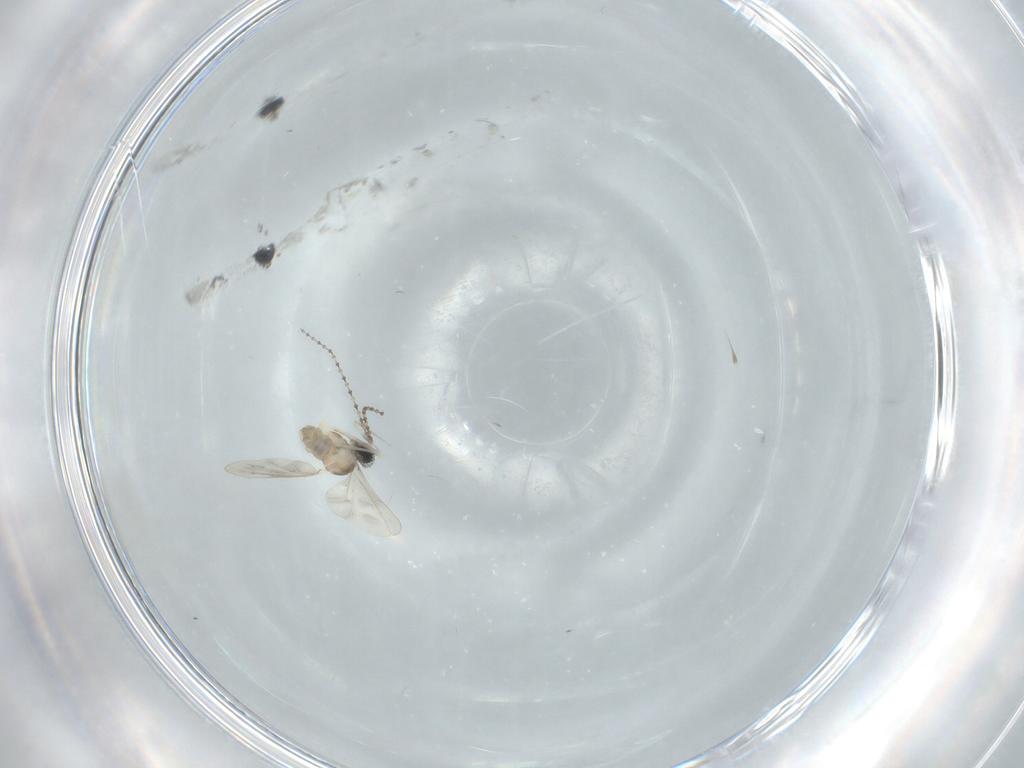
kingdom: Animalia
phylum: Arthropoda
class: Insecta
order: Diptera
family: Cecidomyiidae
